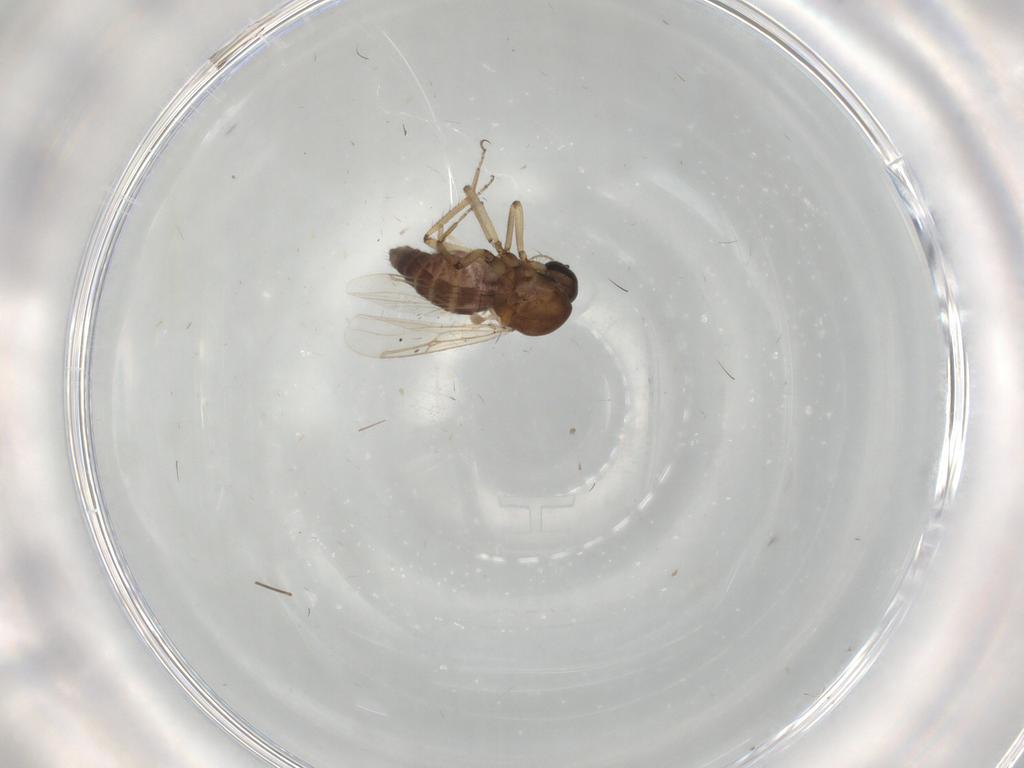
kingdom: Animalia
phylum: Arthropoda
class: Insecta
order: Diptera
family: Ceratopogonidae
